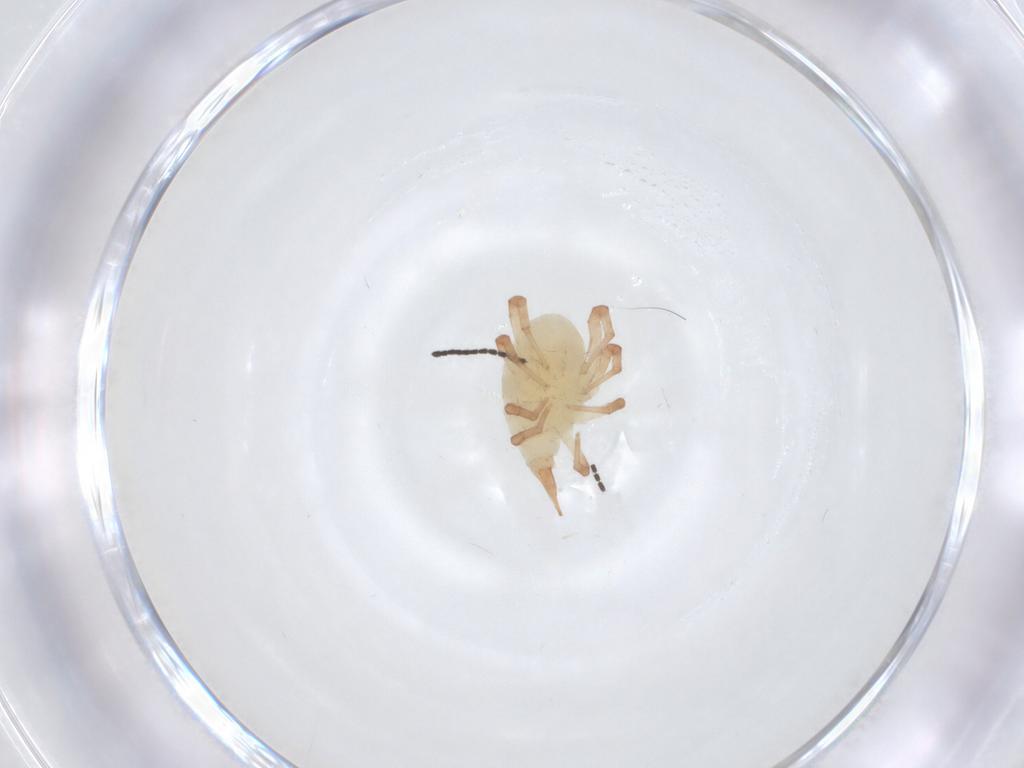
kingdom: Animalia
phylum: Arthropoda
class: Arachnida
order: Trombidiformes
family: Bdellidae
